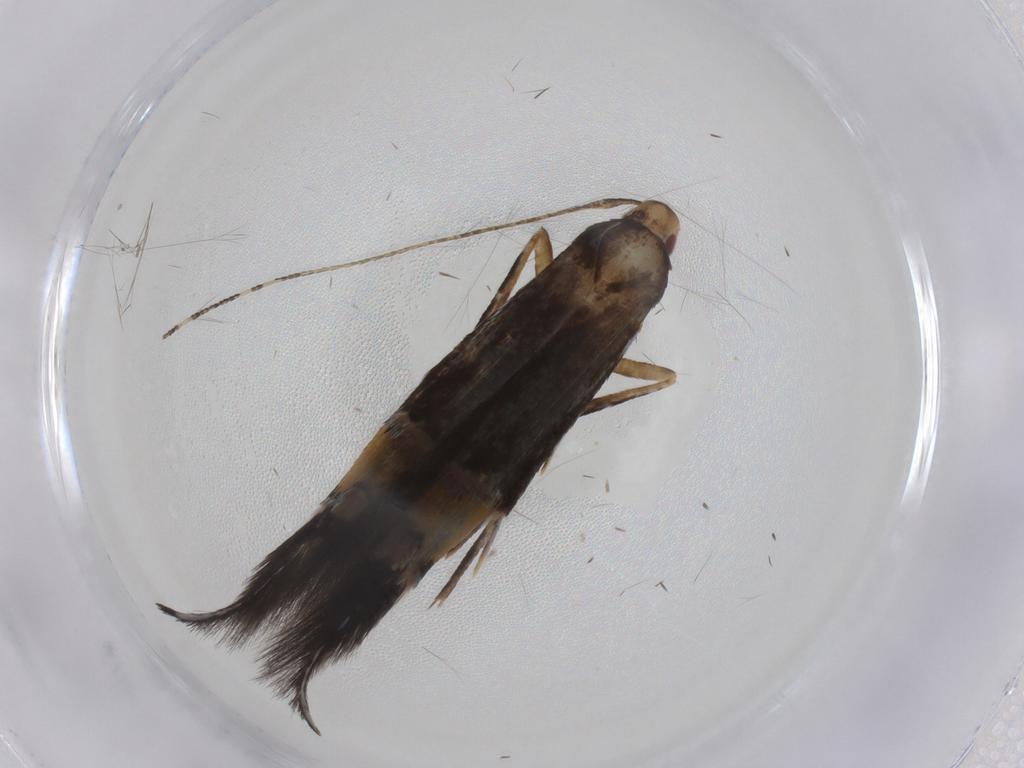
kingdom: Animalia
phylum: Arthropoda
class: Insecta
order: Lepidoptera
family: Cosmopterigidae
